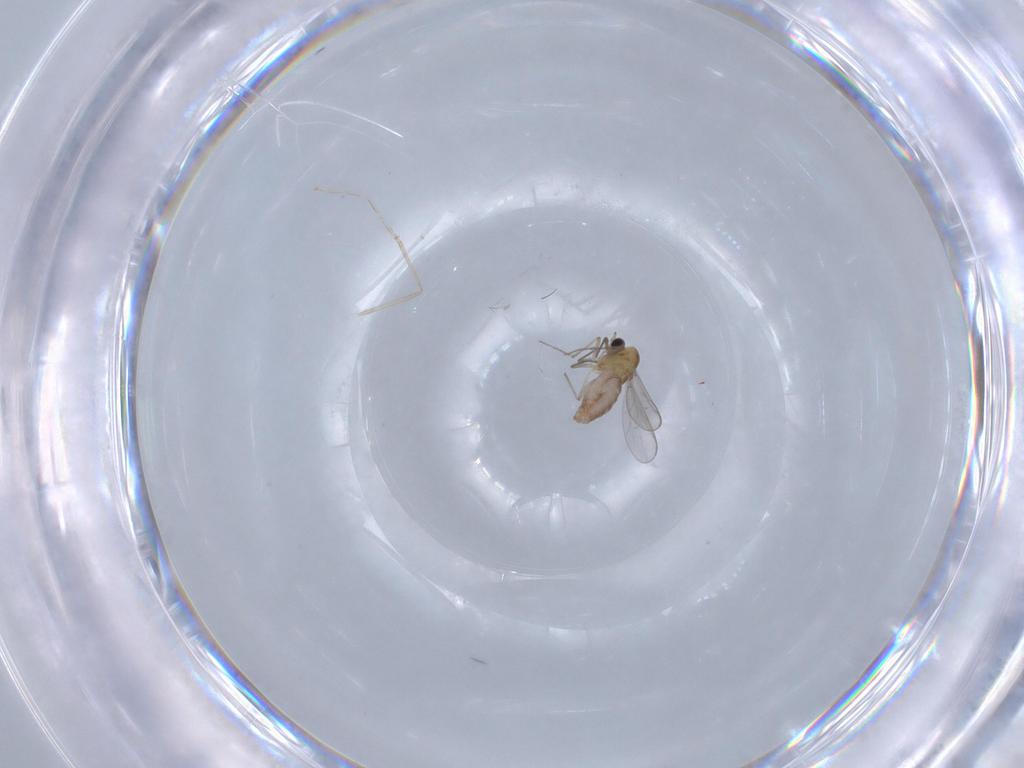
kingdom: Animalia
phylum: Arthropoda
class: Insecta
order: Diptera
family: Chironomidae
